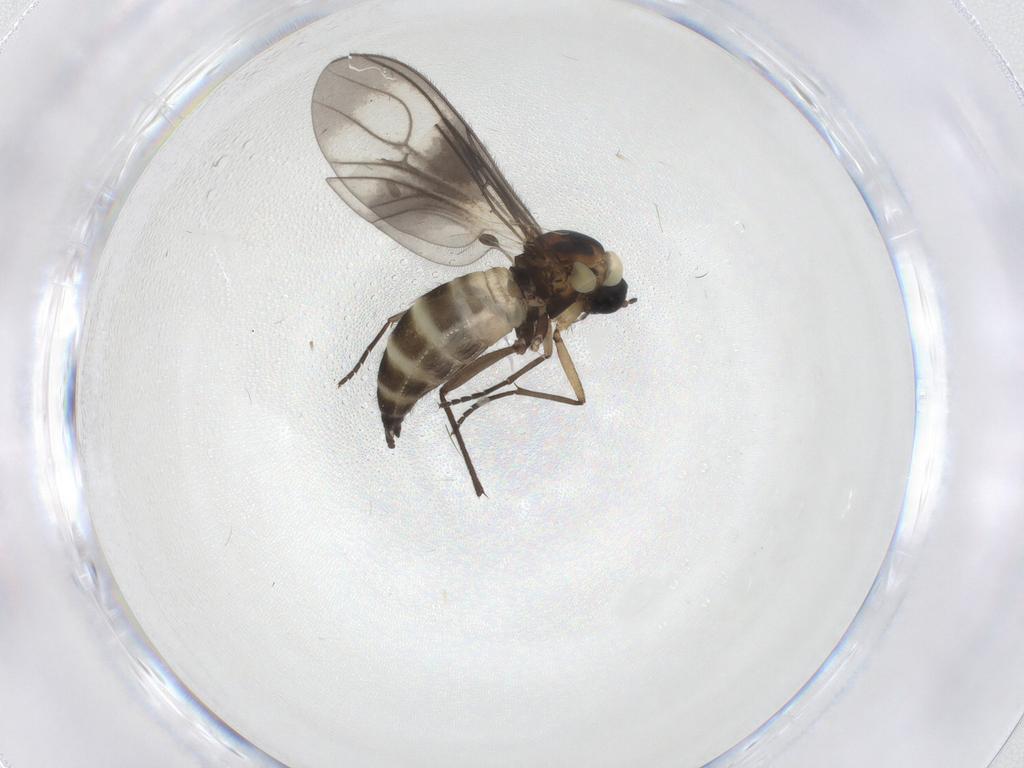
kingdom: Animalia
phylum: Arthropoda
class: Insecta
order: Diptera
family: Sciaridae
